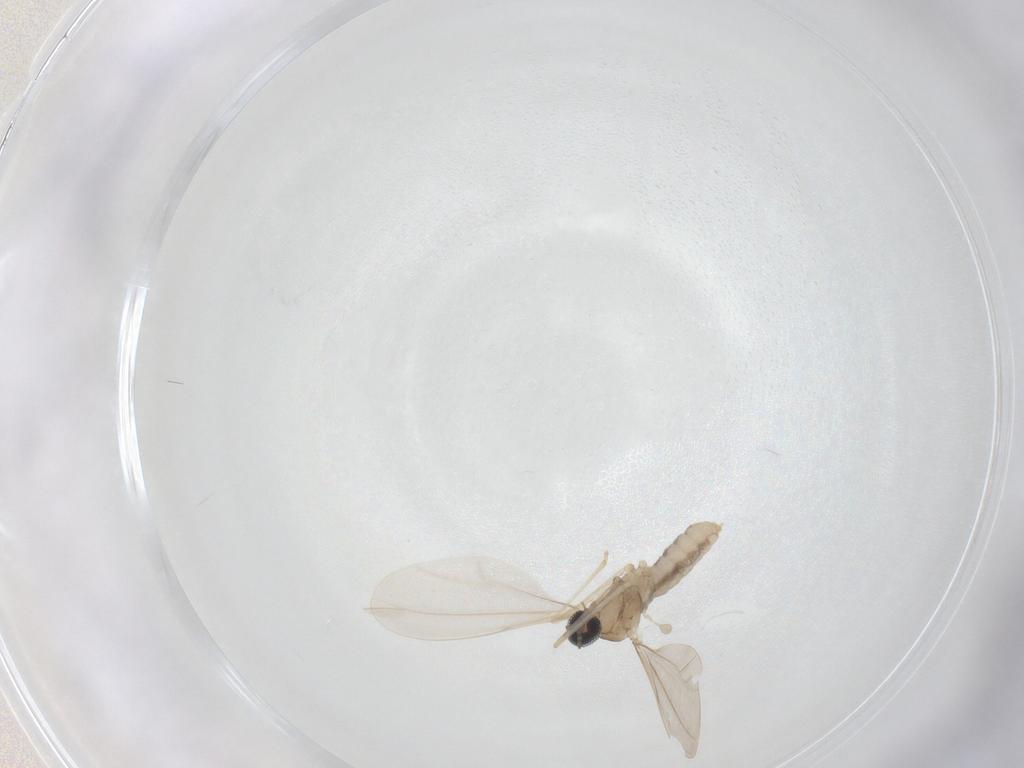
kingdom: Animalia
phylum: Arthropoda
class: Insecta
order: Diptera
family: Cecidomyiidae
